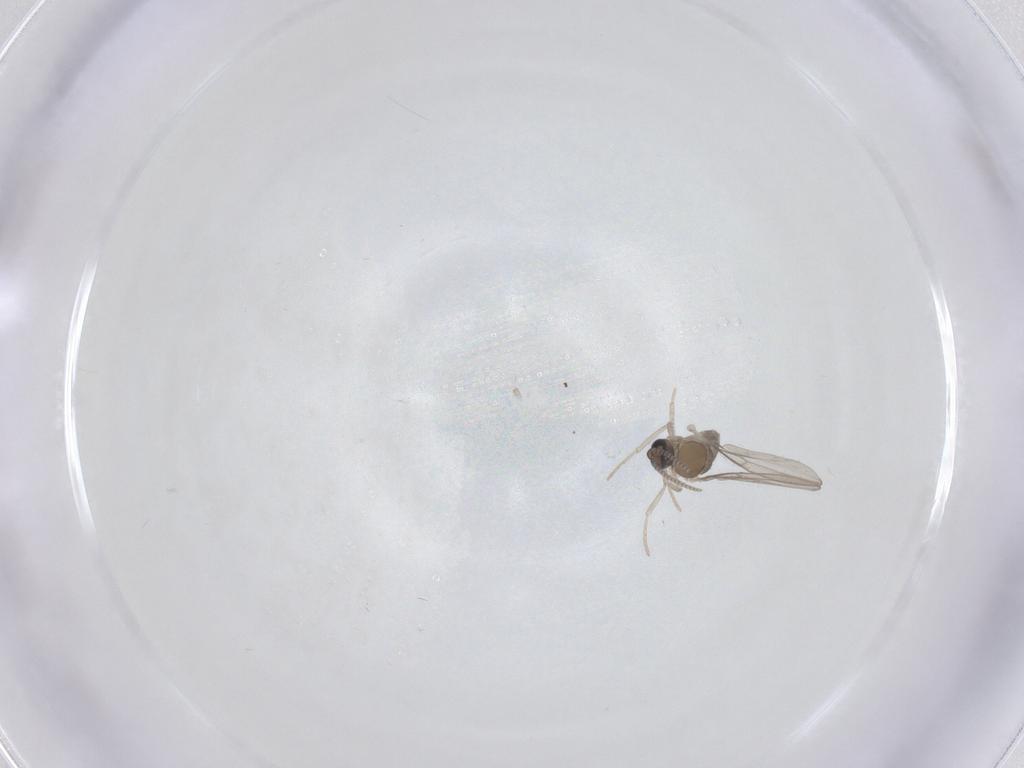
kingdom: Animalia
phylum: Arthropoda
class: Insecta
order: Diptera
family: Cecidomyiidae
